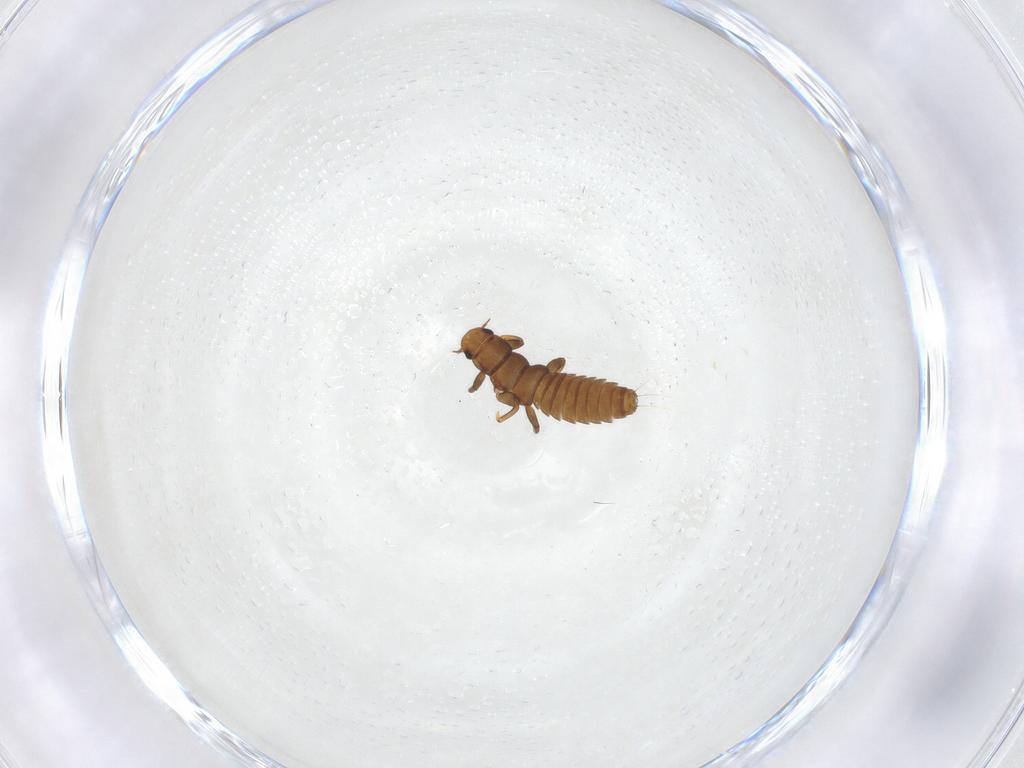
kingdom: Animalia
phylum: Arthropoda
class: Insecta
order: Coleoptera
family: Meloidae
